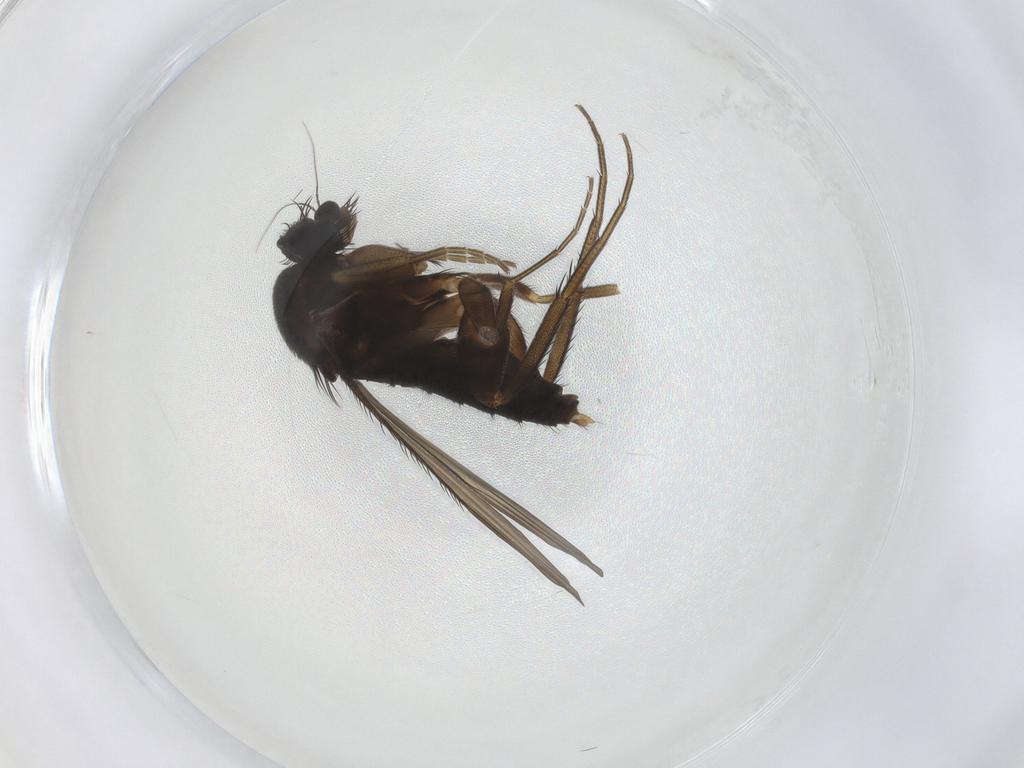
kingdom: Animalia
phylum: Arthropoda
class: Insecta
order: Diptera
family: Phoridae
